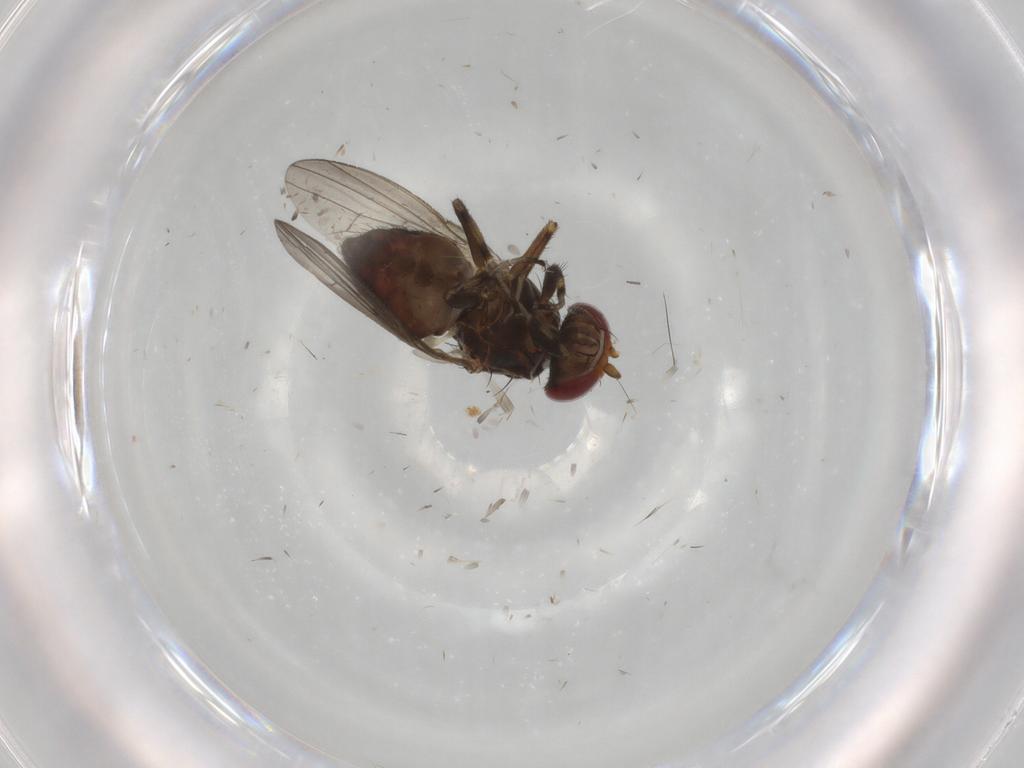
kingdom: Animalia
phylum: Arthropoda
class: Insecta
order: Diptera
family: Heleomyzidae
